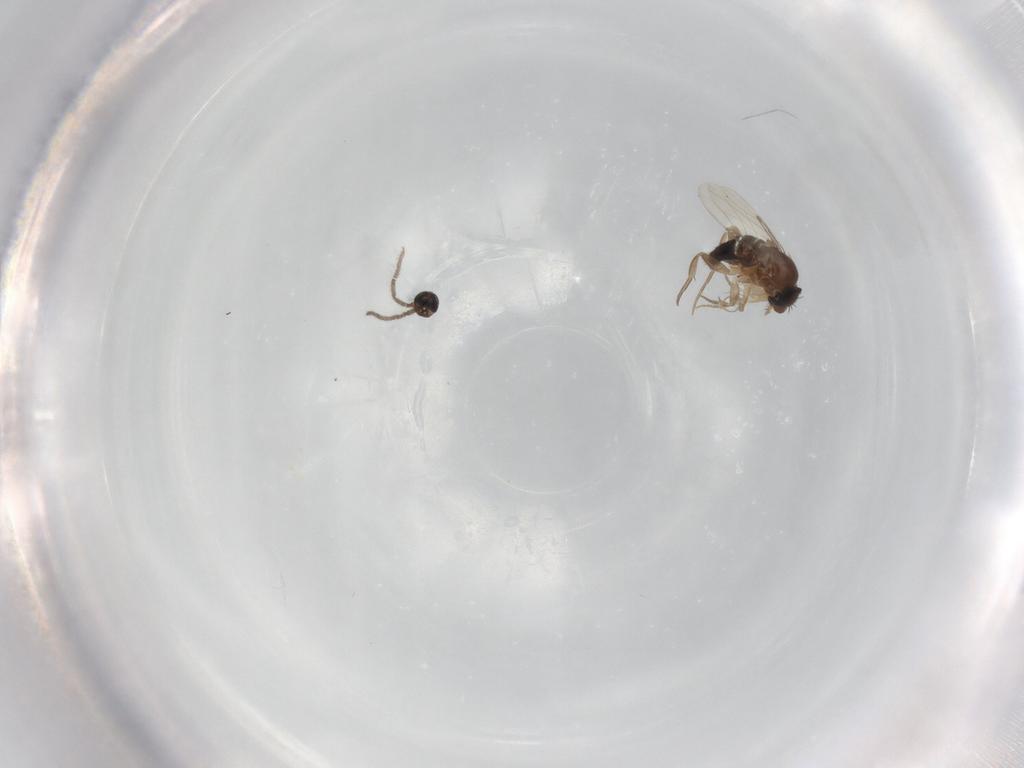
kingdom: Animalia
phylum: Arthropoda
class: Insecta
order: Diptera
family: Sciaridae
